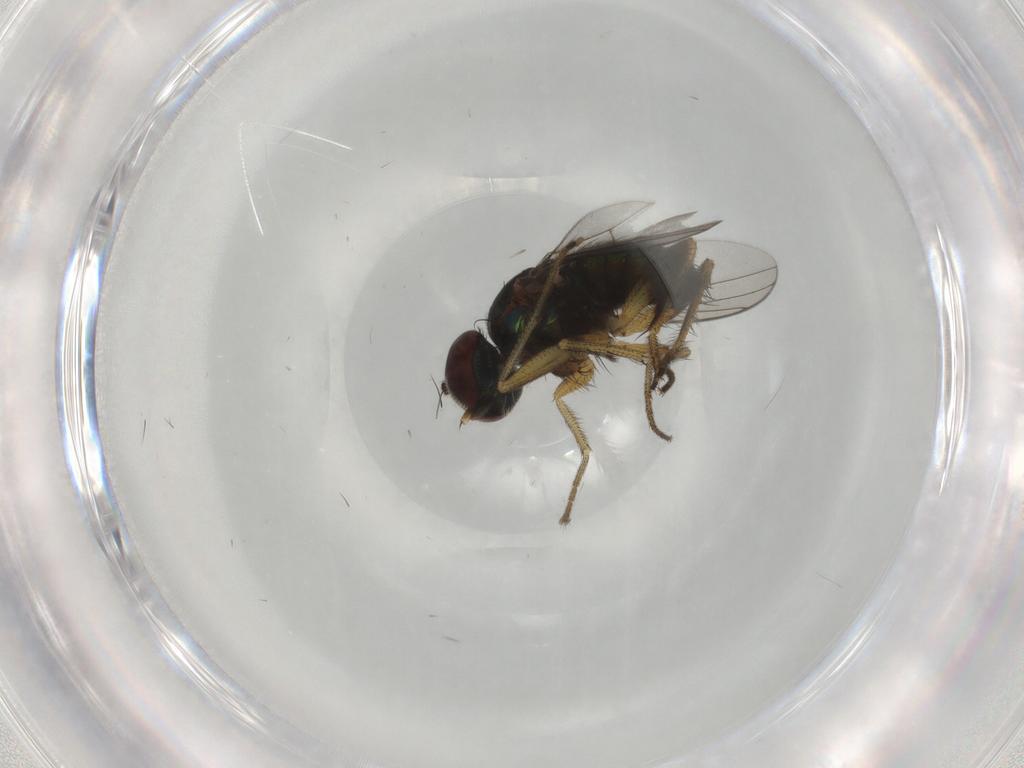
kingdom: Animalia
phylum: Arthropoda
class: Insecta
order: Diptera
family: Dolichopodidae
